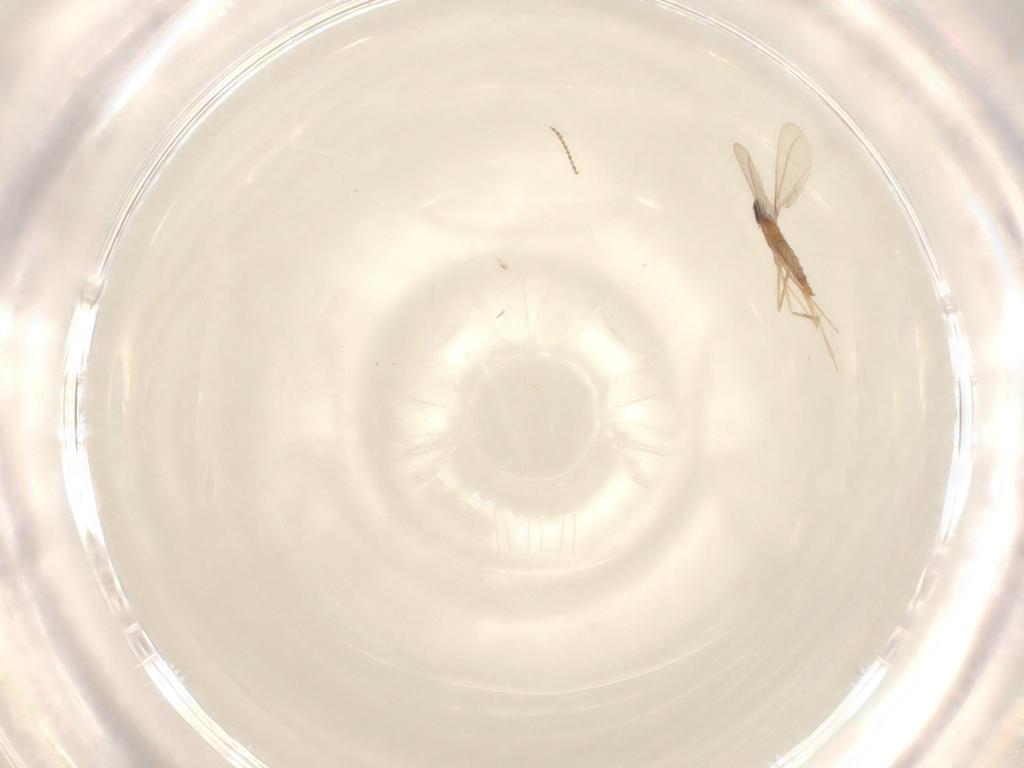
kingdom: Animalia
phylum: Arthropoda
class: Insecta
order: Diptera
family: Cecidomyiidae
